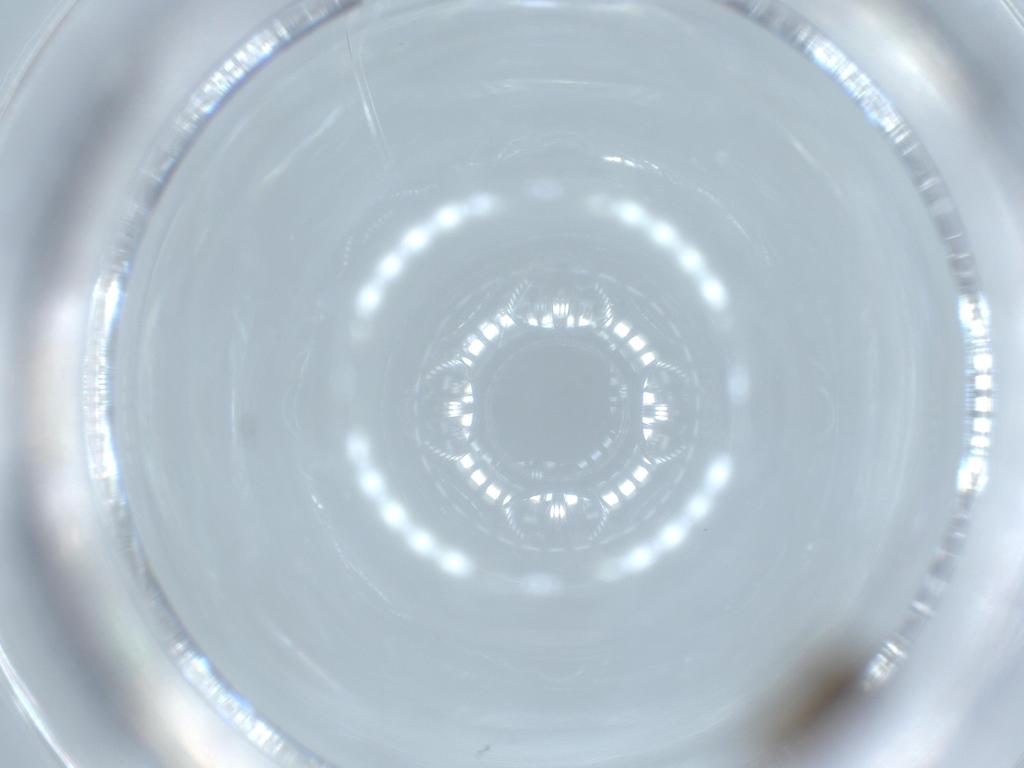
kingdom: Animalia
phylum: Arthropoda
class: Insecta
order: Diptera
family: Psychodidae
